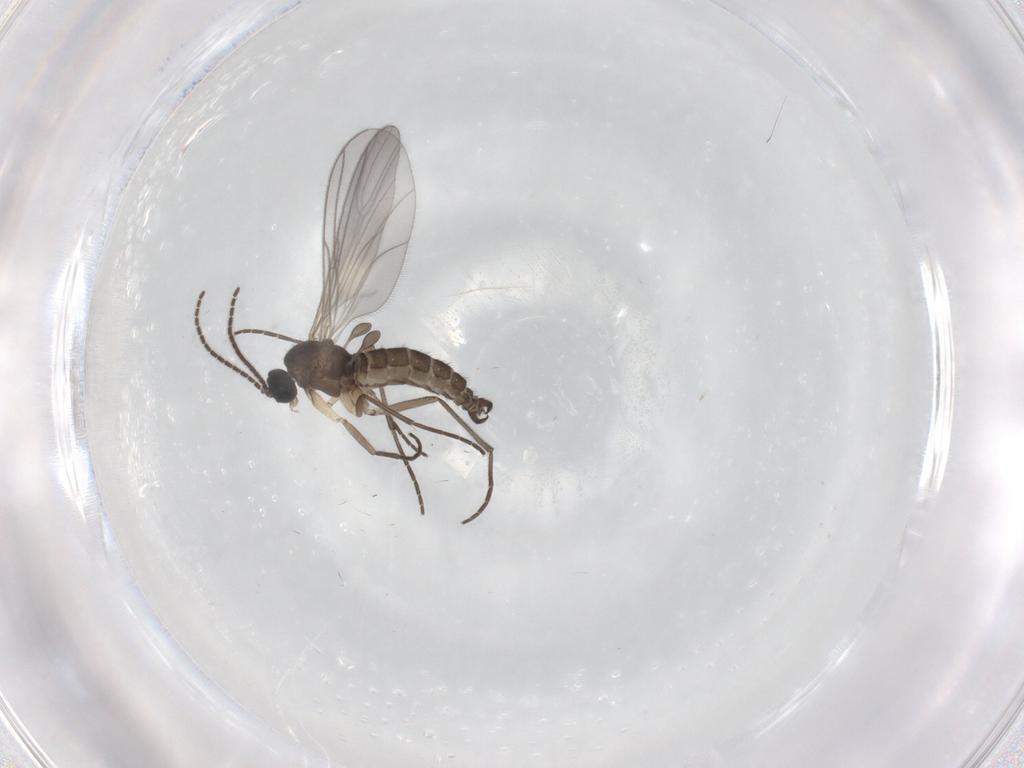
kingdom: Animalia
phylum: Arthropoda
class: Insecta
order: Diptera
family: Sciaridae
